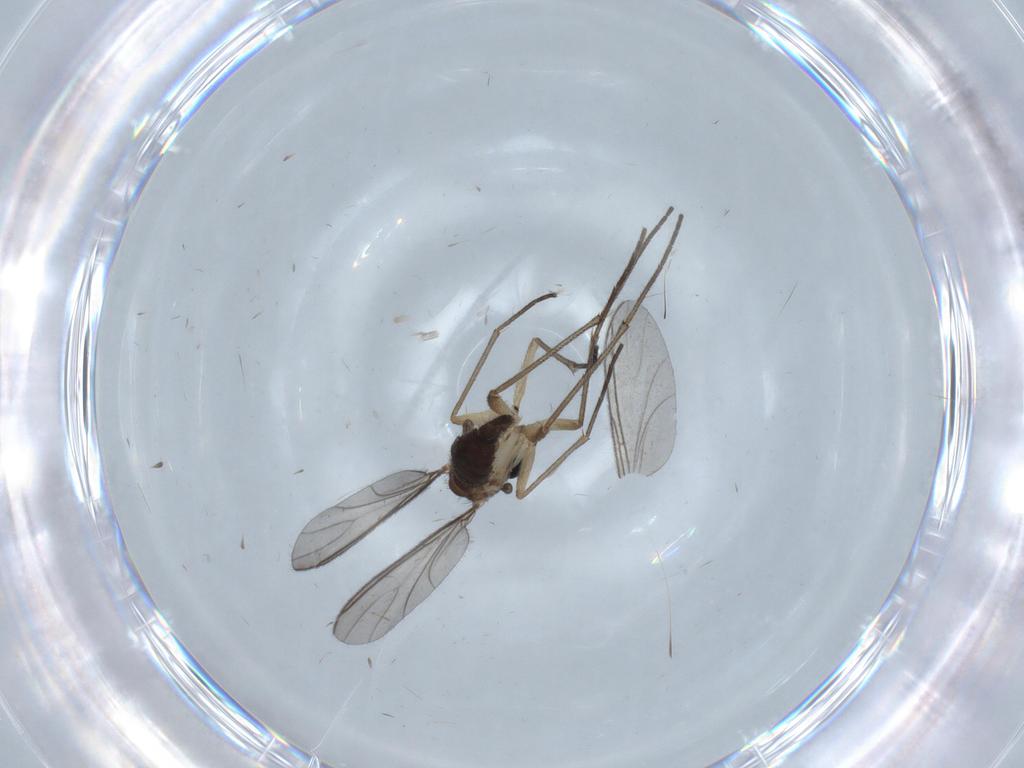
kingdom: Animalia
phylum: Arthropoda
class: Insecta
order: Diptera
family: Sciaridae
